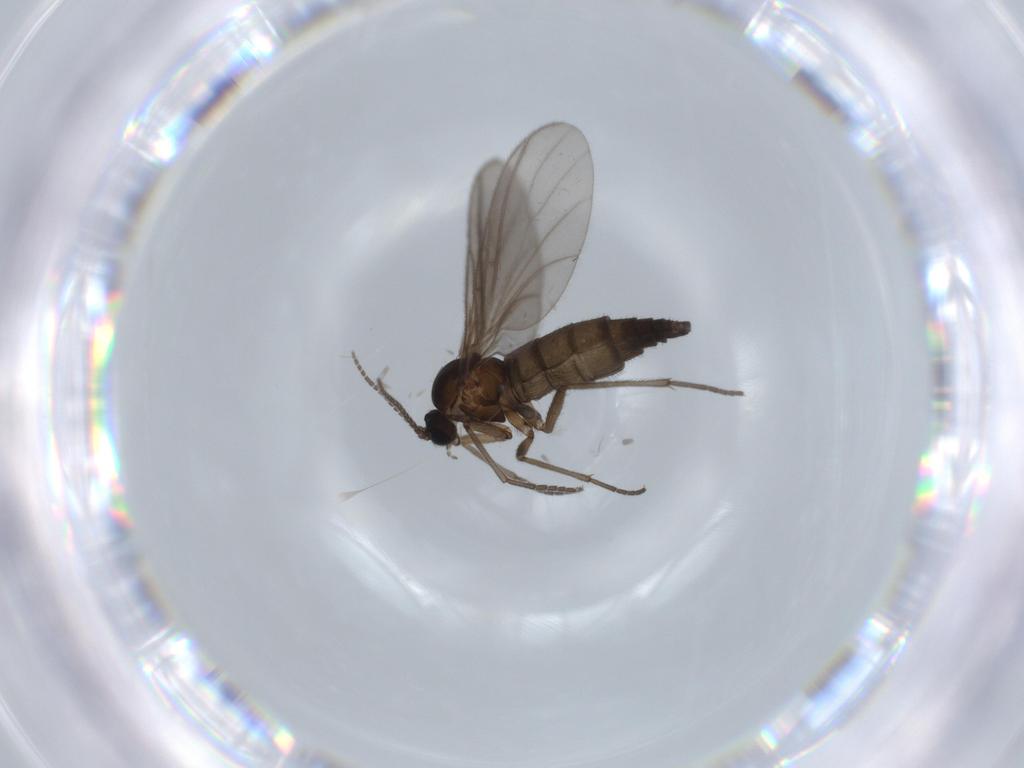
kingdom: Animalia
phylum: Arthropoda
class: Insecta
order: Diptera
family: Sciaridae
